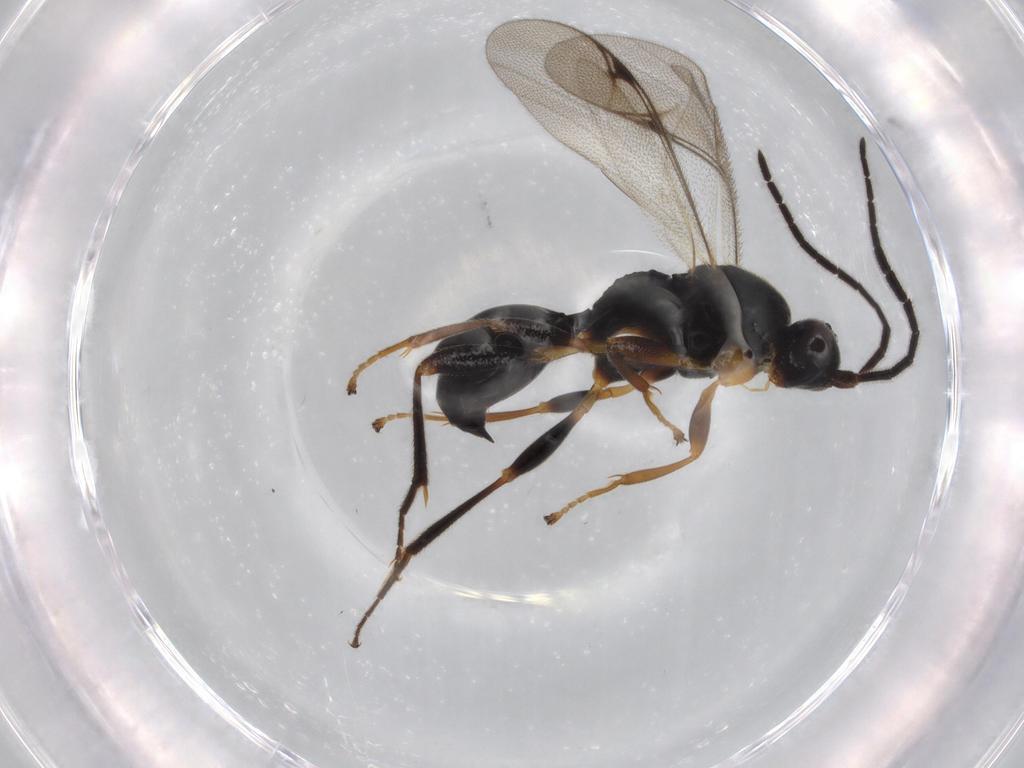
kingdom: Animalia
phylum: Arthropoda
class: Insecta
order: Hymenoptera
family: Proctotrupidae
